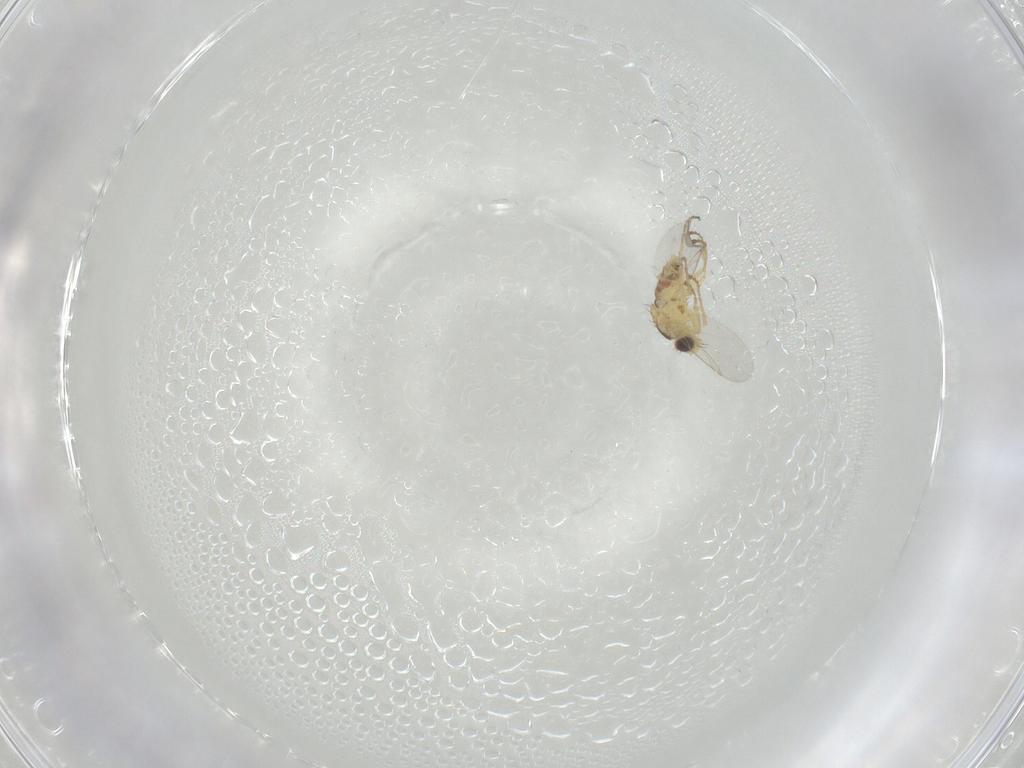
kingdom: Animalia
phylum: Arthropoda
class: Insecta
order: Diptera
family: Agromyzidae
